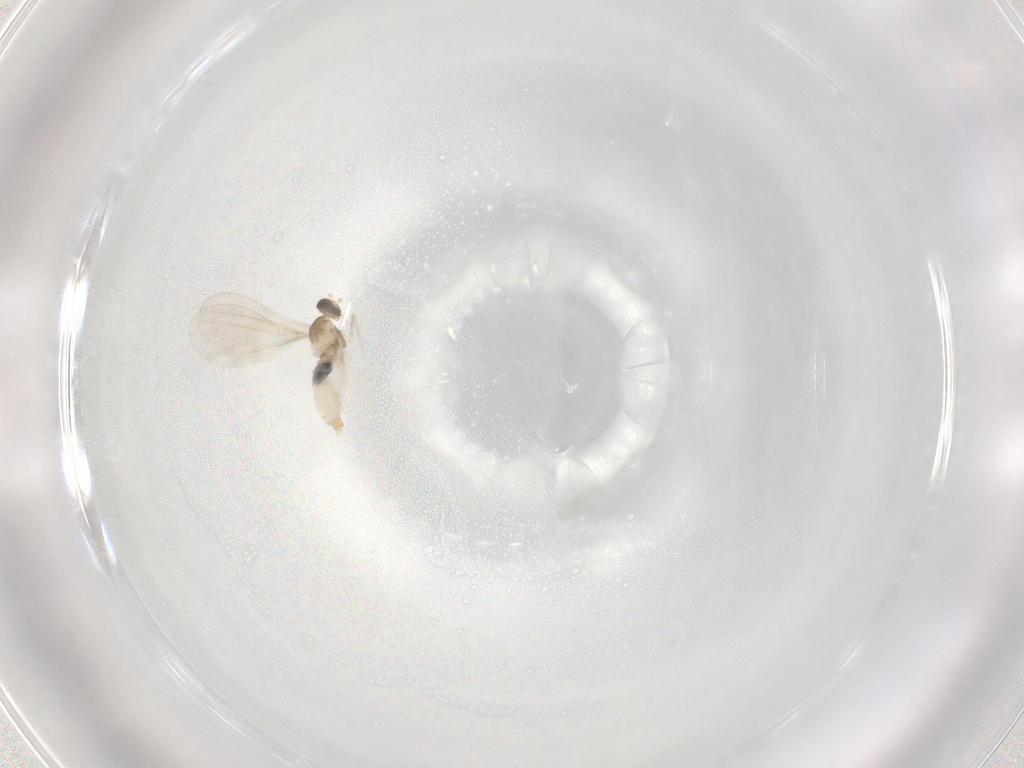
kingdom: Animalia
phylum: Arthropoda
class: Insecta
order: Diptera
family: Cecidomyiidae
